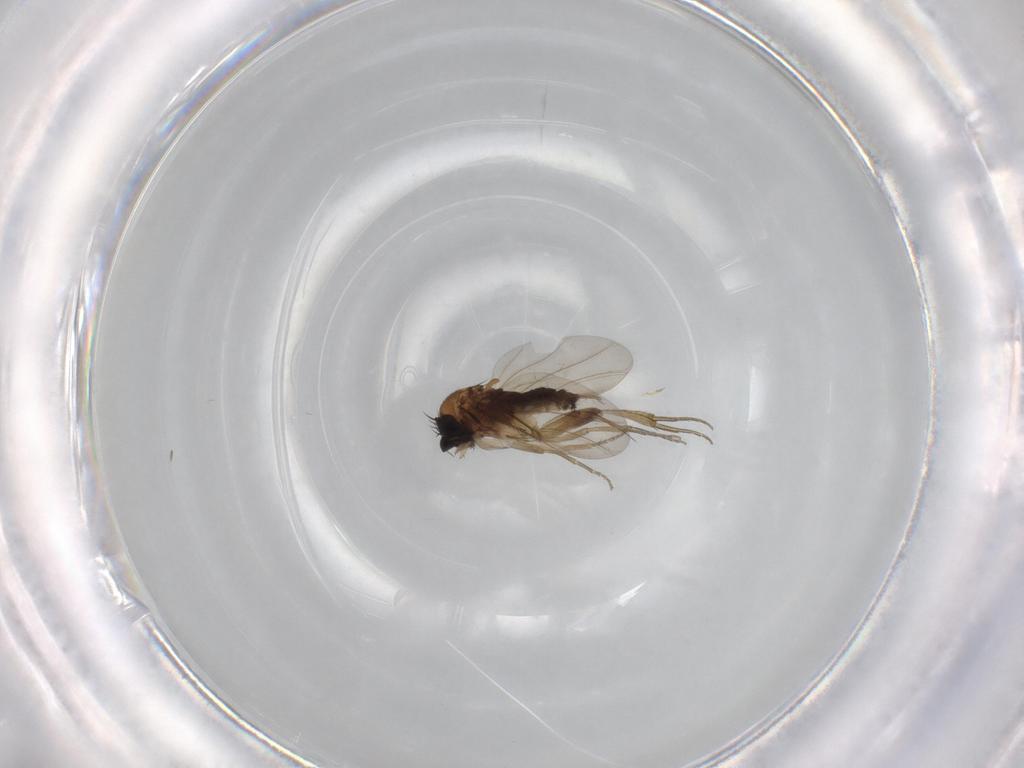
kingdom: Animalia
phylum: Arthropoda
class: Insecta
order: Diptera
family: Phoridae
